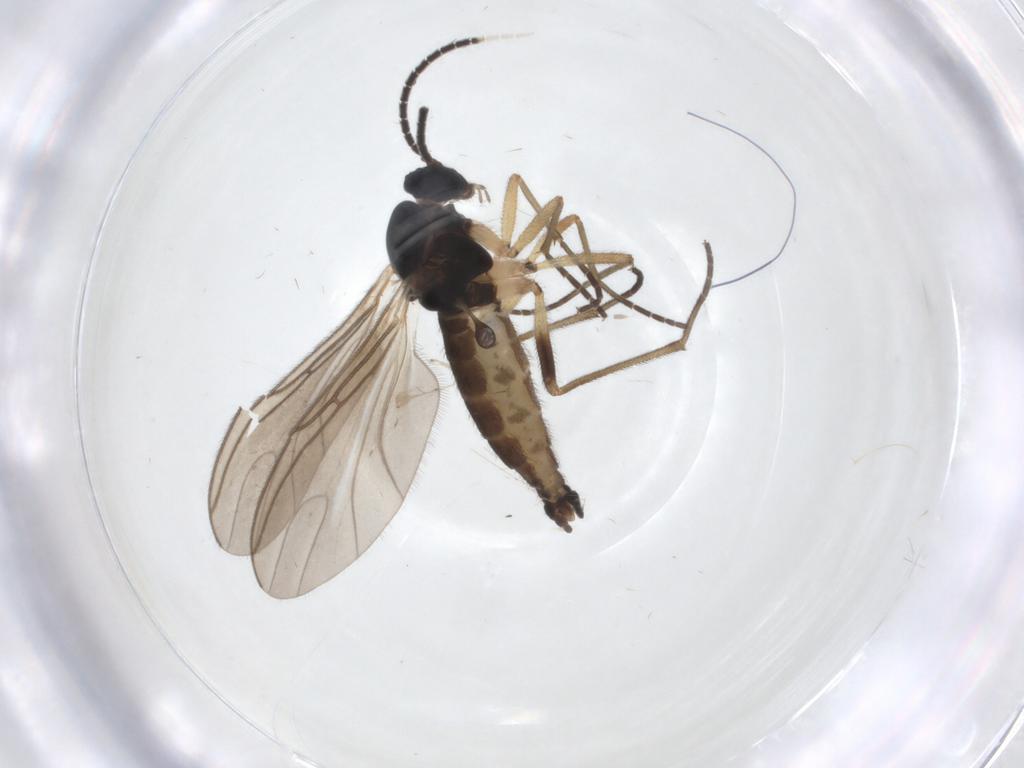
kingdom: Animalia
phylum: Arthropoda
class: Insecta
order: Diptera
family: Sciaridae
